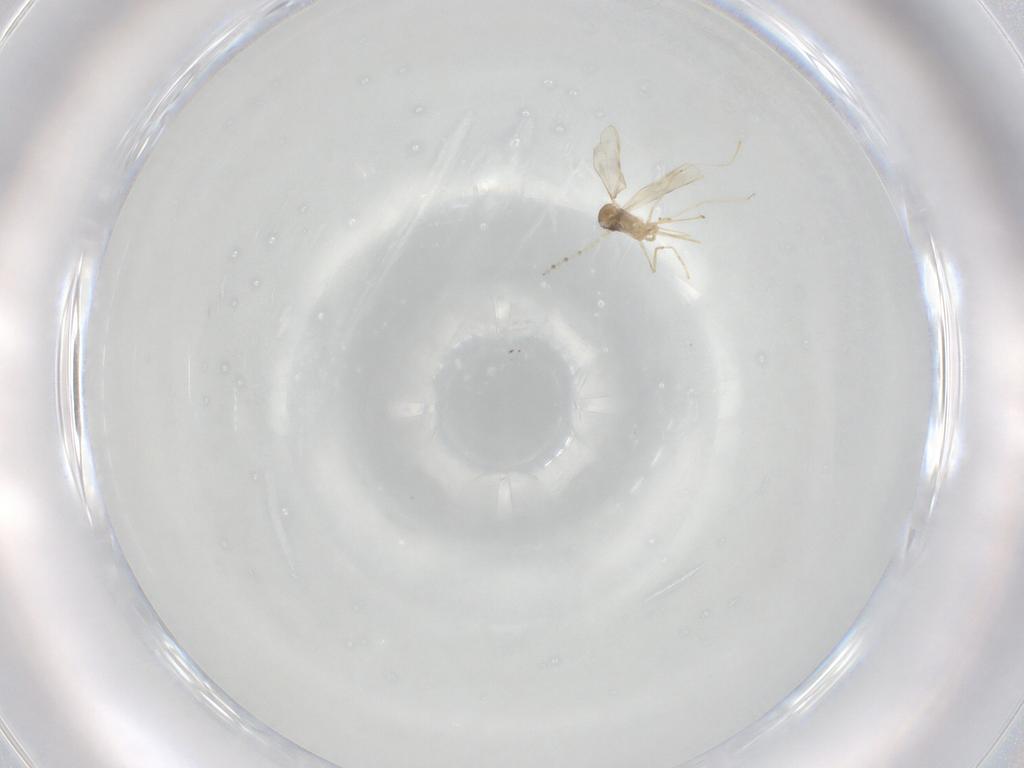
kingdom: Animalia
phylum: Arthropoda
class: Insecta
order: Diptera
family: Cecidomyiidae
